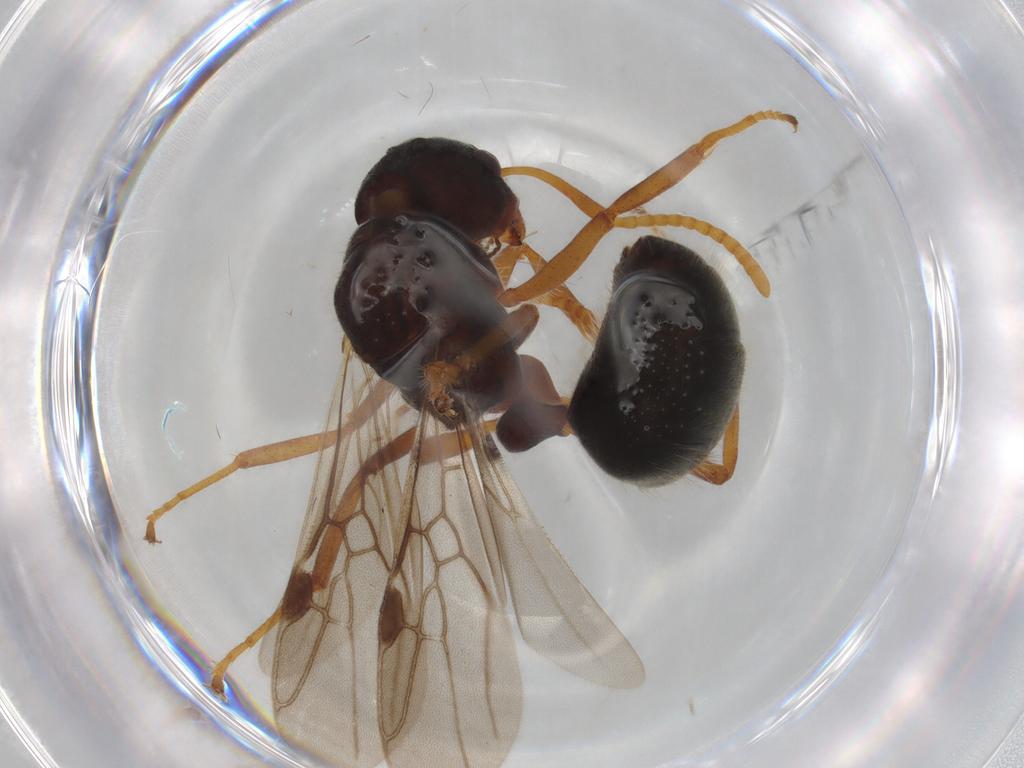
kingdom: Animalia
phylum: Arthropoda
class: Insecta
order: Hymenoptera
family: Formicidae
